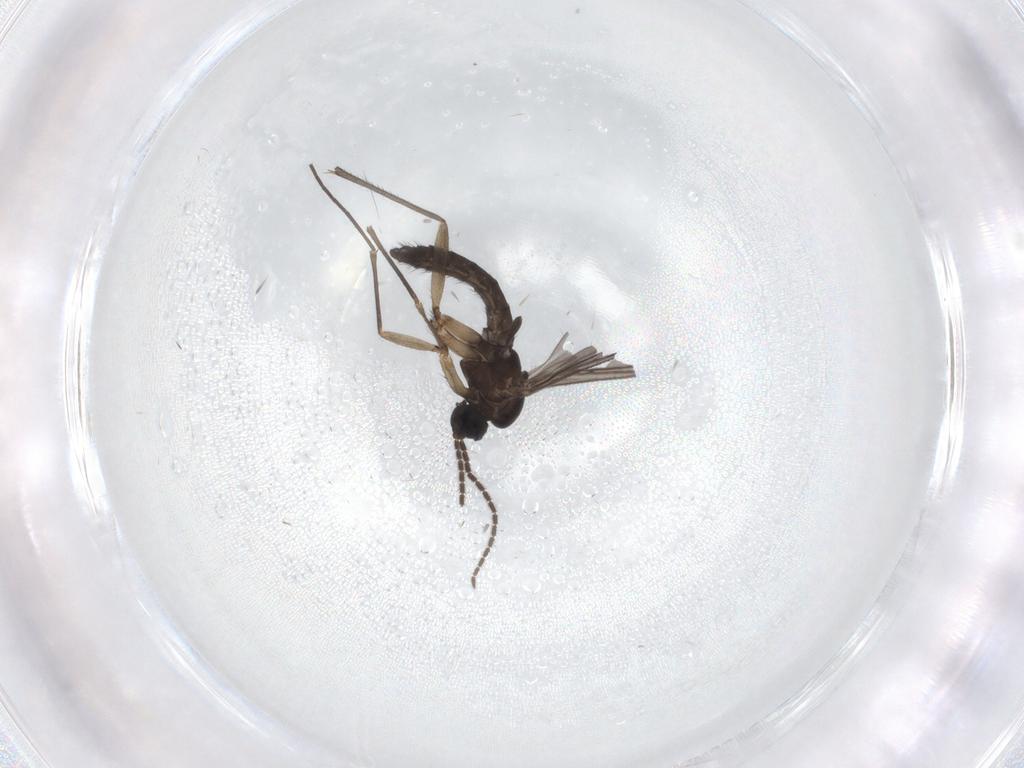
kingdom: Animalia
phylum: Arthropoda
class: Insecta
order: Diptera
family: Sciaridae
